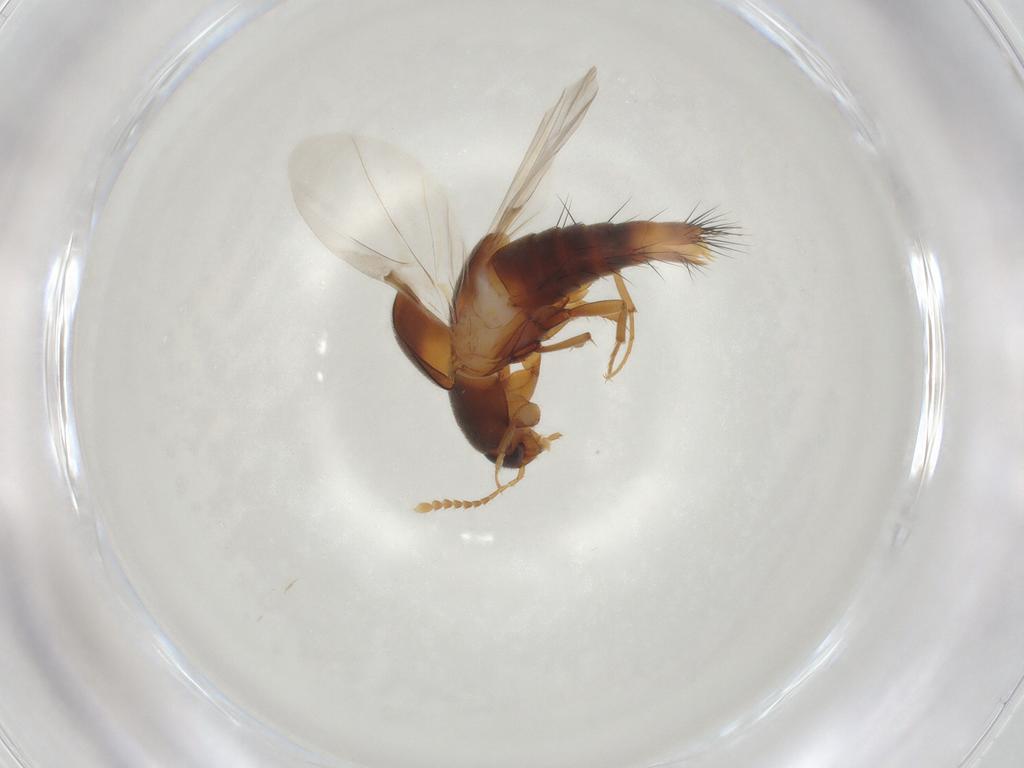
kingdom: Animalia
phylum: Arthropoda
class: Insecta
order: Coleoptera
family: Staphylinidae
